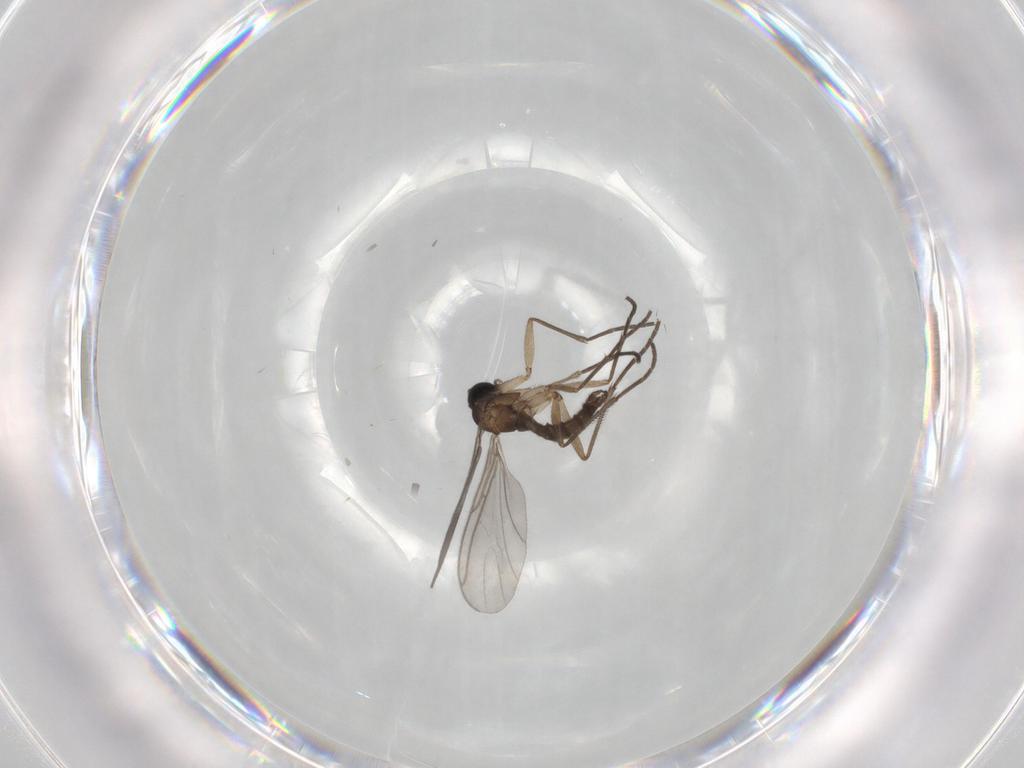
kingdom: Animalia
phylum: Arthropoda
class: Insecta
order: Diptera
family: Sciaridae
